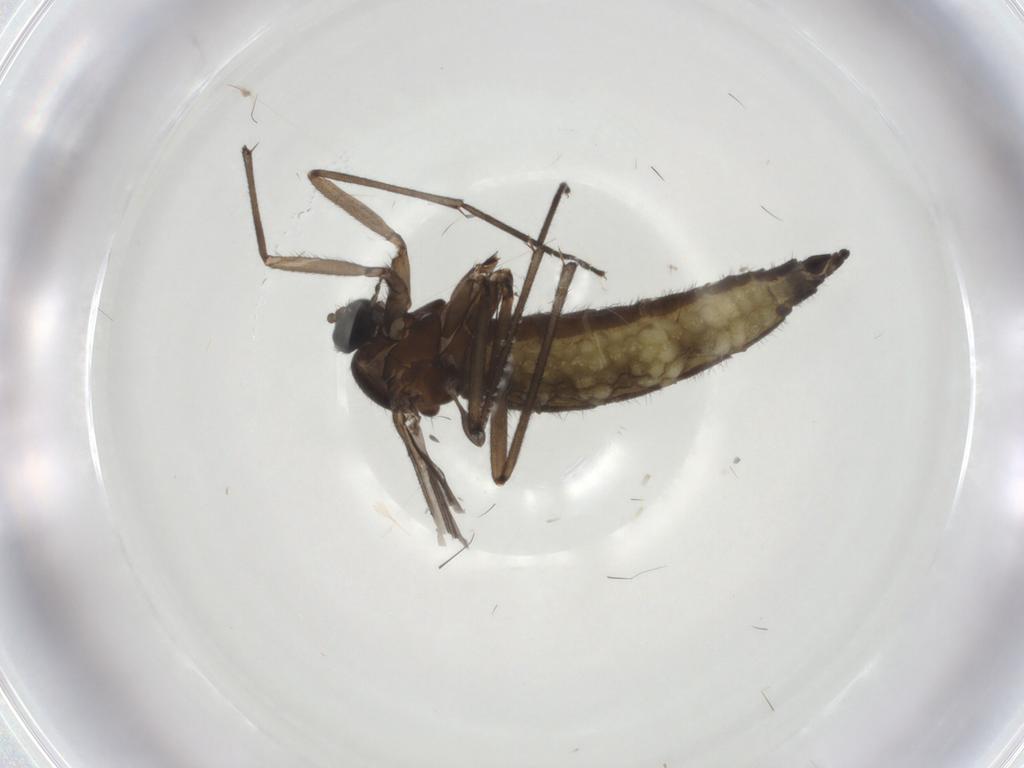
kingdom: Animalia
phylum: Arthropoda
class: Insecta
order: Diptera
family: Sciaridae
